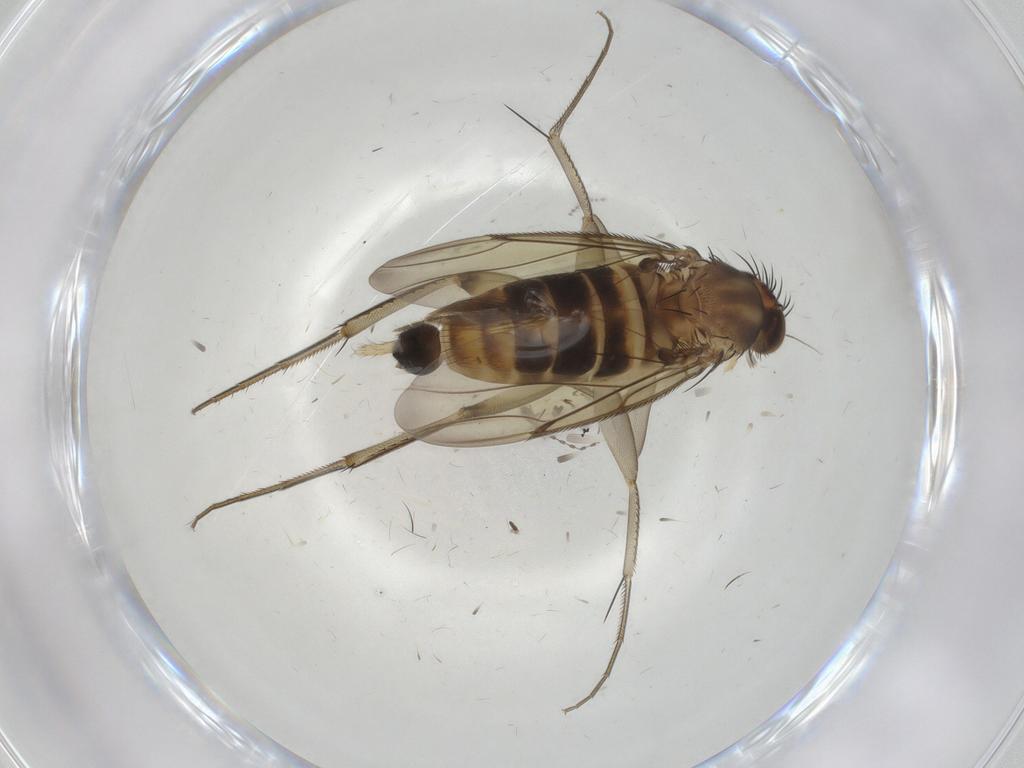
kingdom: Animalia
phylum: Arthropoda
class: Insecta
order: Diptera
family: Phoridae
